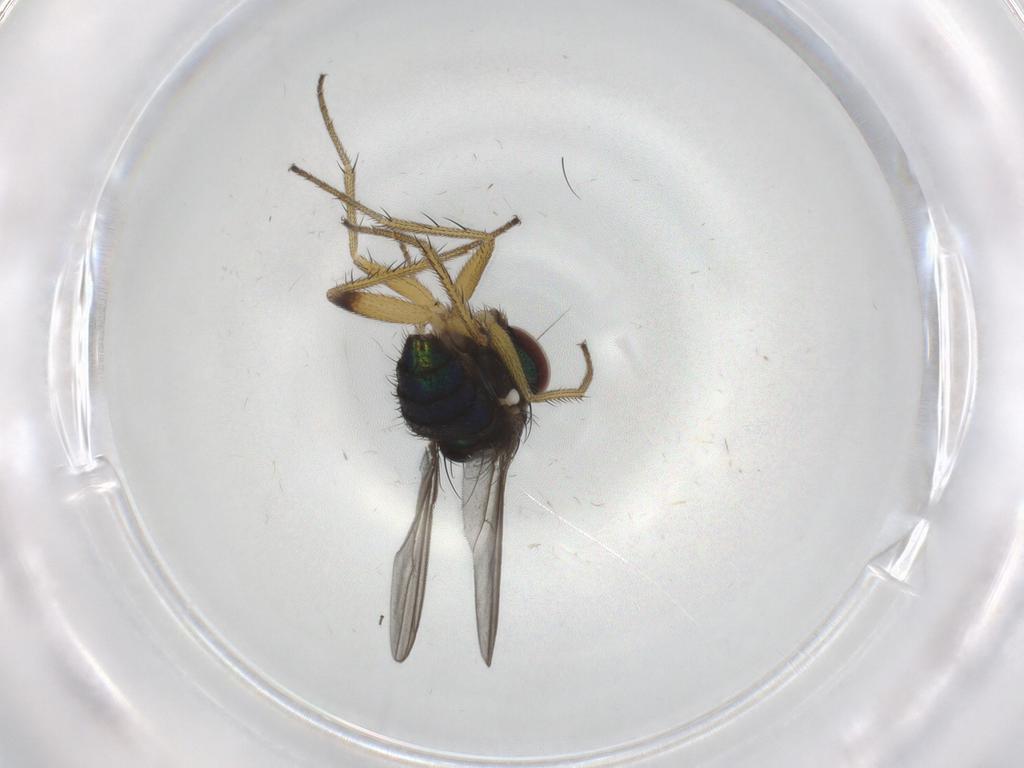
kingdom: Animalia
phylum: Arthropoda
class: Insecta
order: Diptera
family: Dolichopodidae
